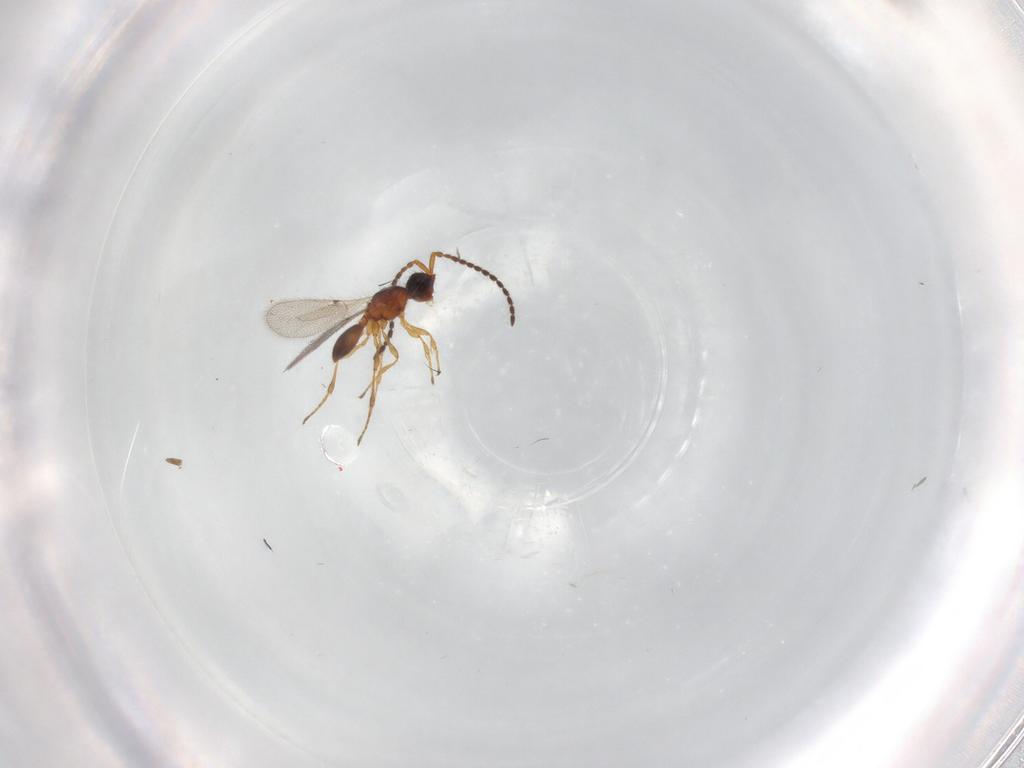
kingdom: Animalia
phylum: Arthropoda
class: Insecta
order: Hymenoptera
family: Diapriidae
